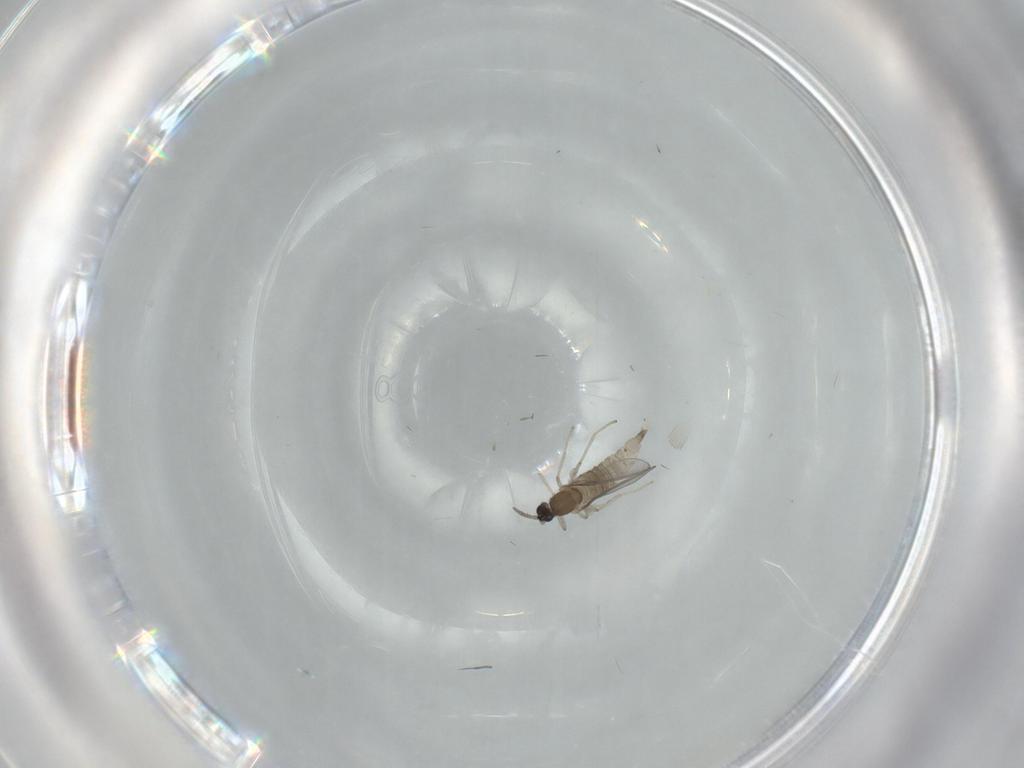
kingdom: Animalia
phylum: Arthropoda
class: Insecta
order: Diptera
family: Cecidomyiidae
